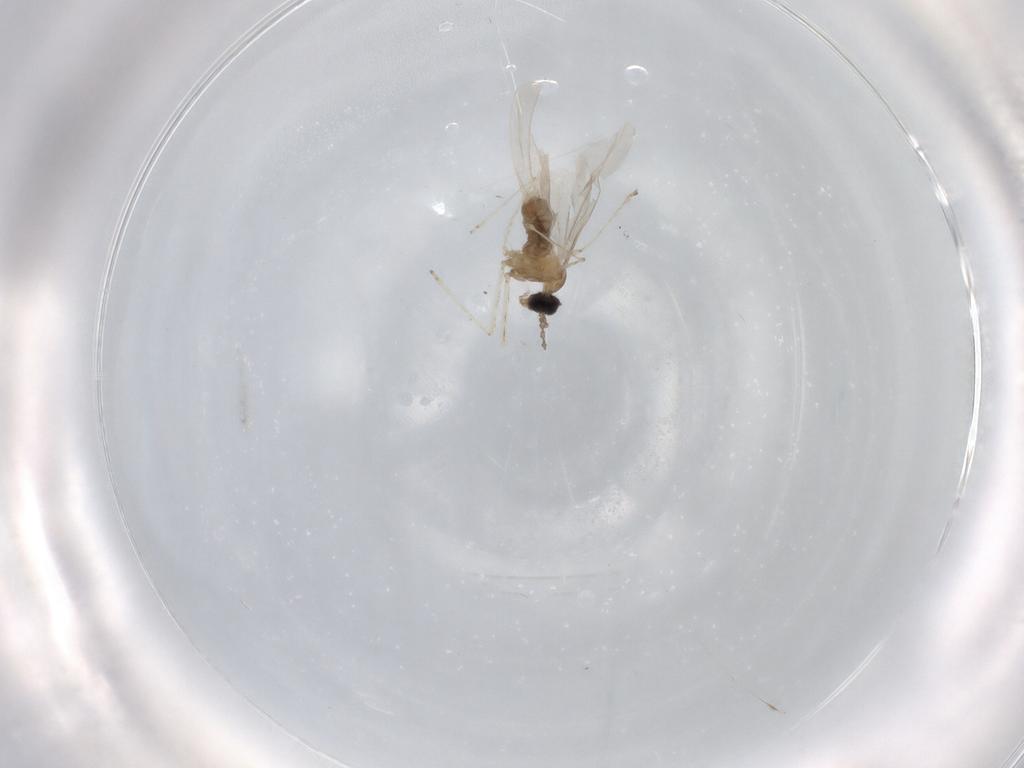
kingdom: Animalia
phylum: Arthropoda
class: Insecta
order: Diptera
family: Cecidomyiidae
